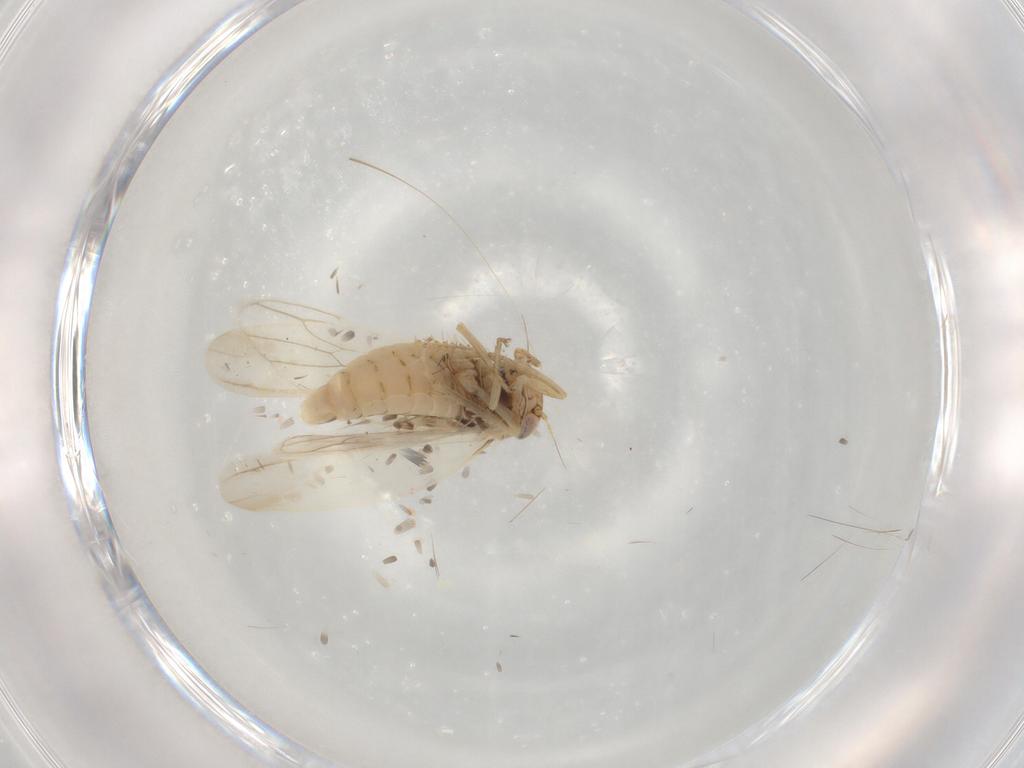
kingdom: Animalia
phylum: Arthropoda
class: Insecta
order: Hemiptera
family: Cicadellidae
